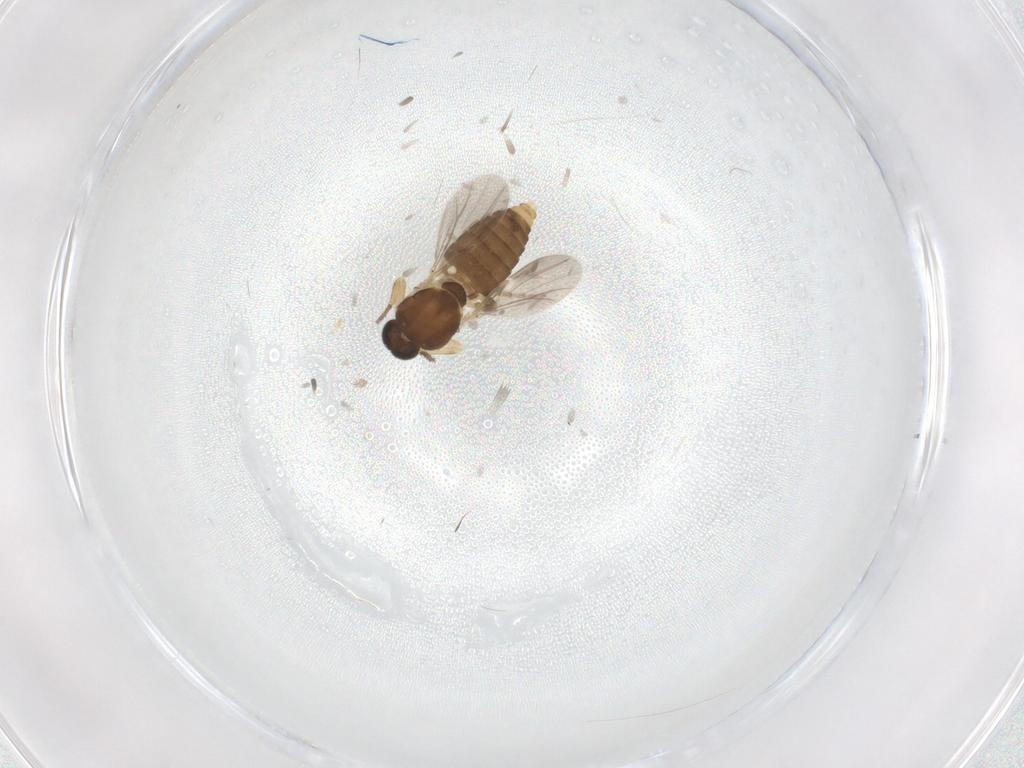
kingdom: Animalia
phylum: Arthropoda
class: Insecta
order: Diptera
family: Ceratopogonidae
